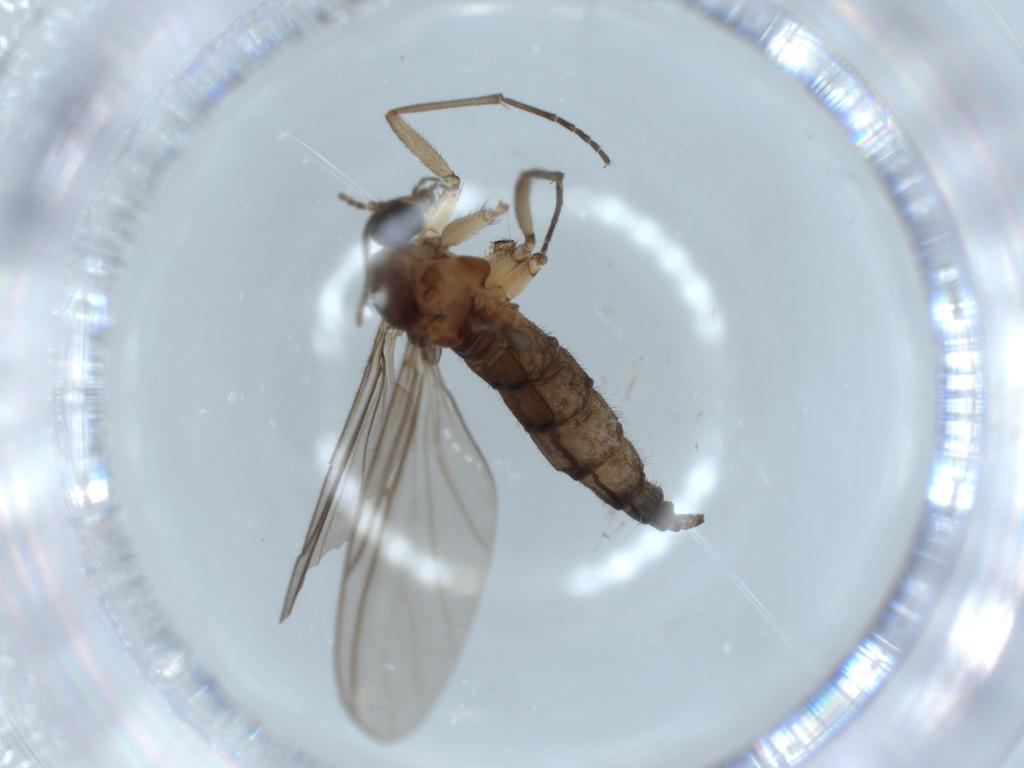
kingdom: Animalia
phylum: Arthropoda
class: Insecta
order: Diptera
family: Sciaridae
